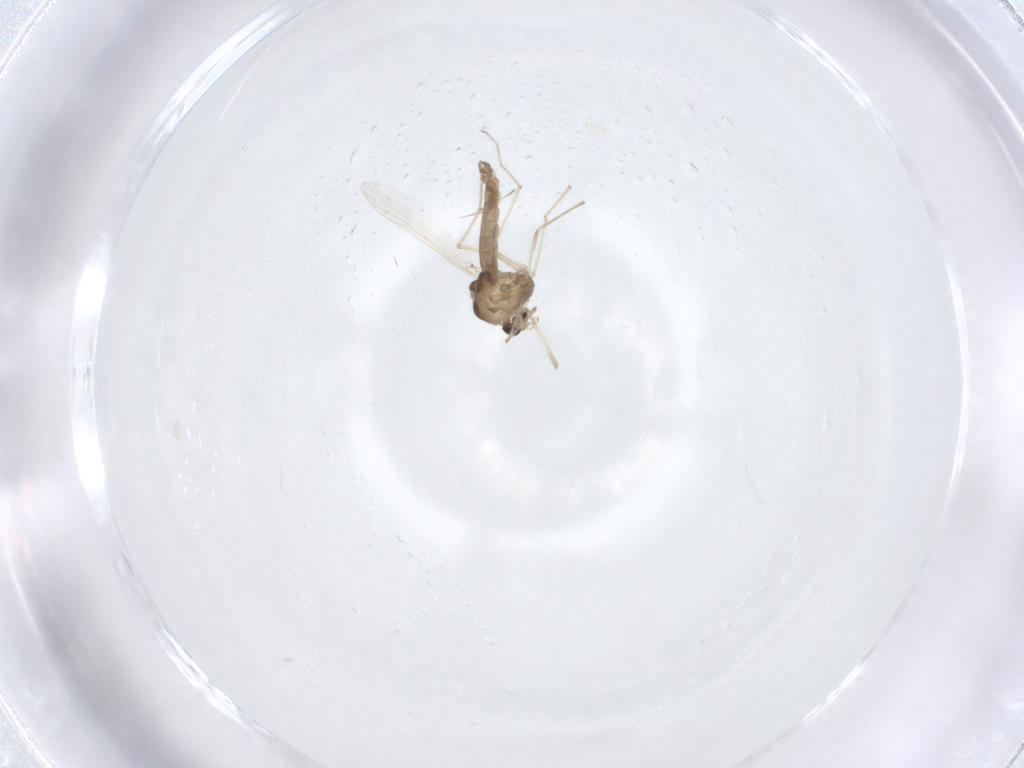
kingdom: Animalia
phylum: Arthropoda
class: Insecta
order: Diptera
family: Chironomidae
